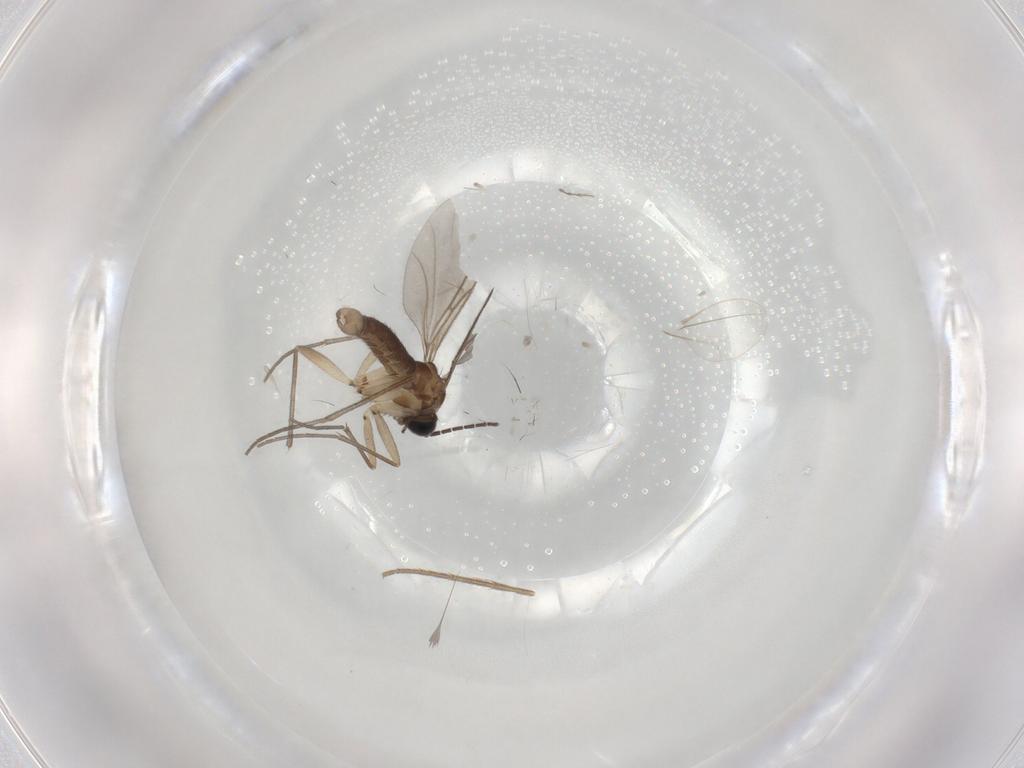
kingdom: Animalia
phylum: Arthropoda
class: Insecta
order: Diptera
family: Sciaridae
